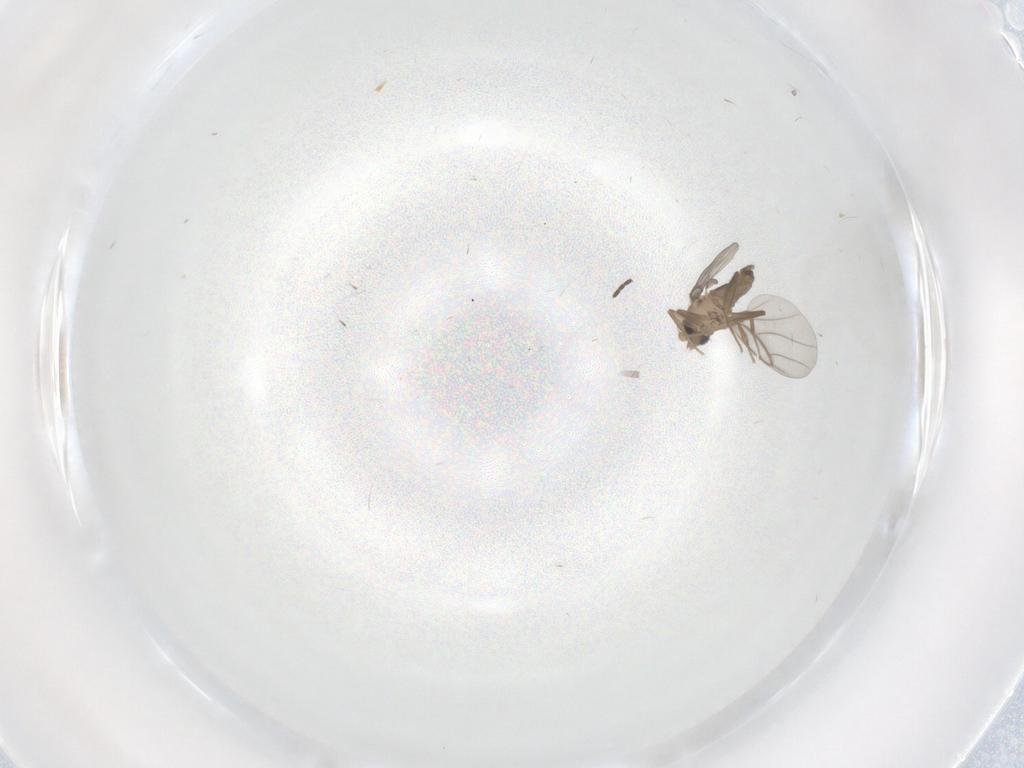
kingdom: Animalia
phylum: Arthropoda
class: Insecta
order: Diptera
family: Sciaridae
